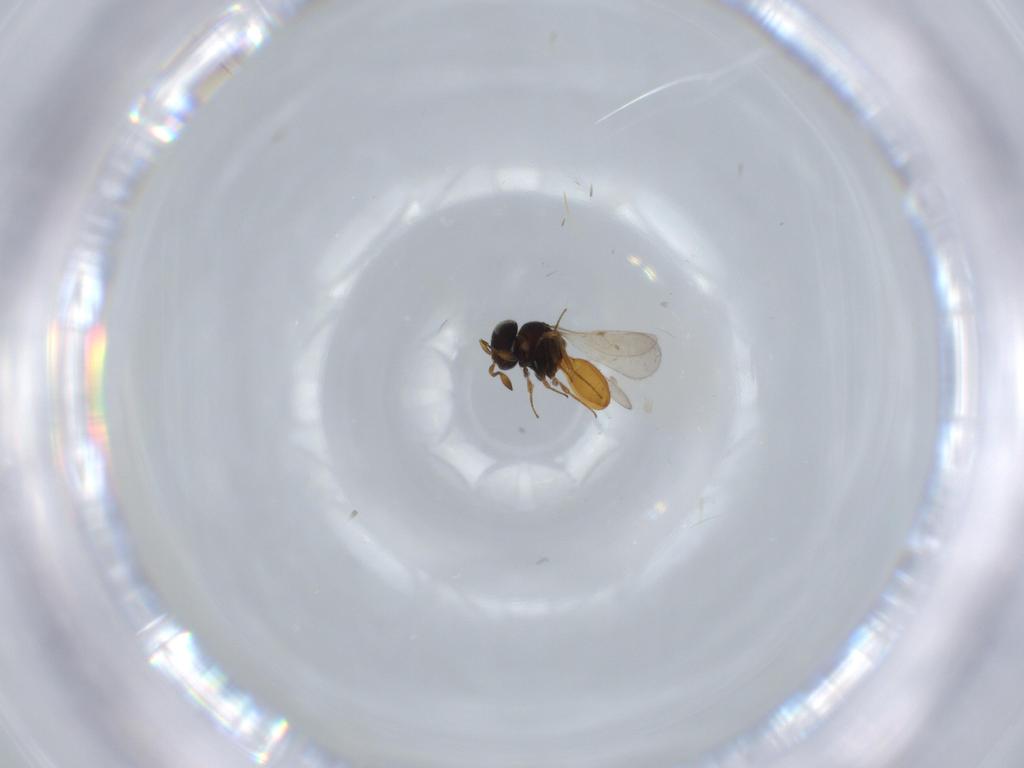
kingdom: Animalia
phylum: Arthropoda
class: Insecta
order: Hymenoptera
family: Scelionidae
